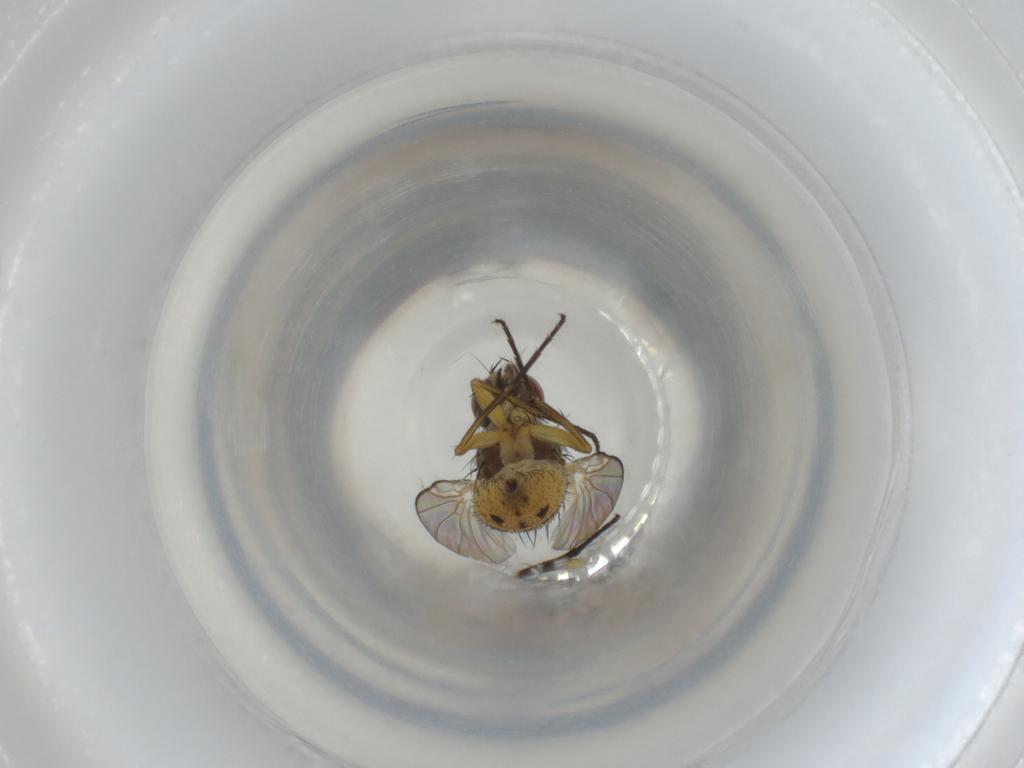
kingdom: Animalia
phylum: Arthropoda
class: Insecta
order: Diptera
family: Muscidae
